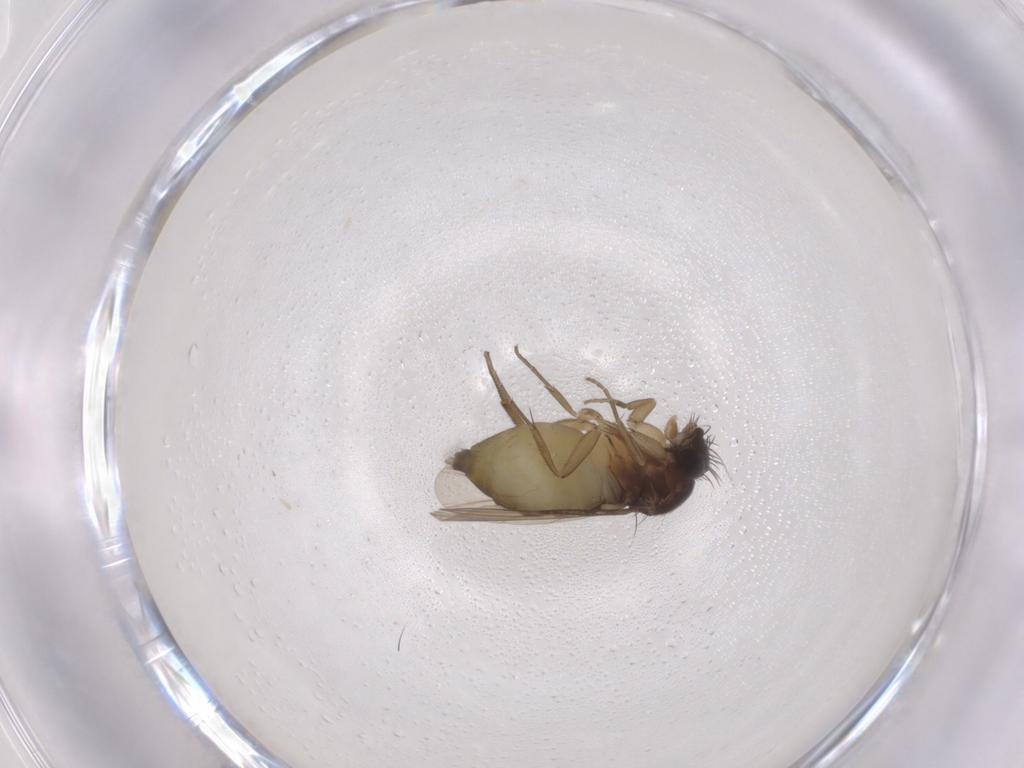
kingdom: Animalia
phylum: Arthropoda
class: Insecta
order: Diptera
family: Phoridae
